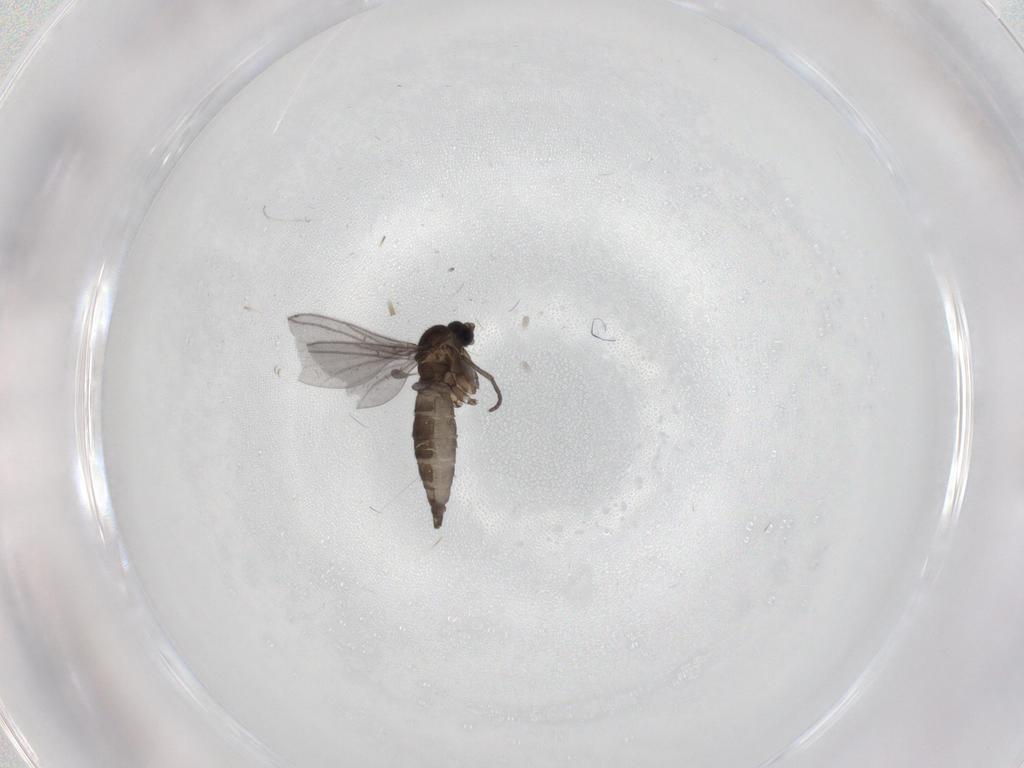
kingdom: Animalia
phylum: Arthropoda
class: Insecta
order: Diptera
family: Cecidomyiidae
